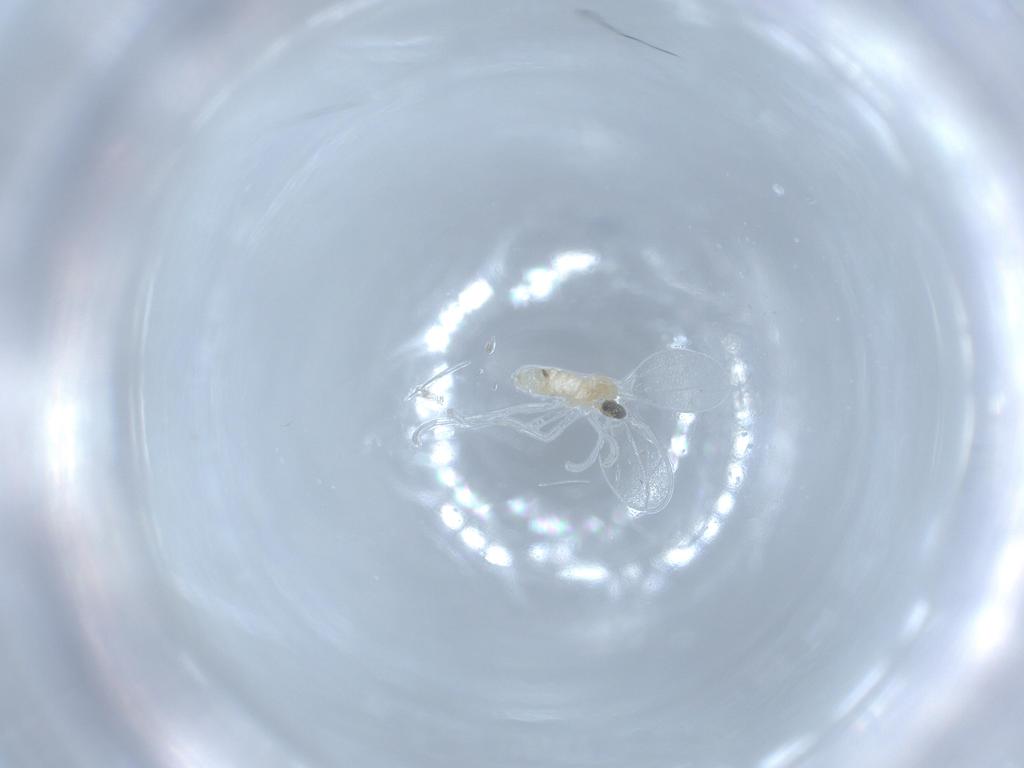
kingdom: Animalia
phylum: Arthropoda
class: Insecta
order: Diptera
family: Cecidomyiidae
